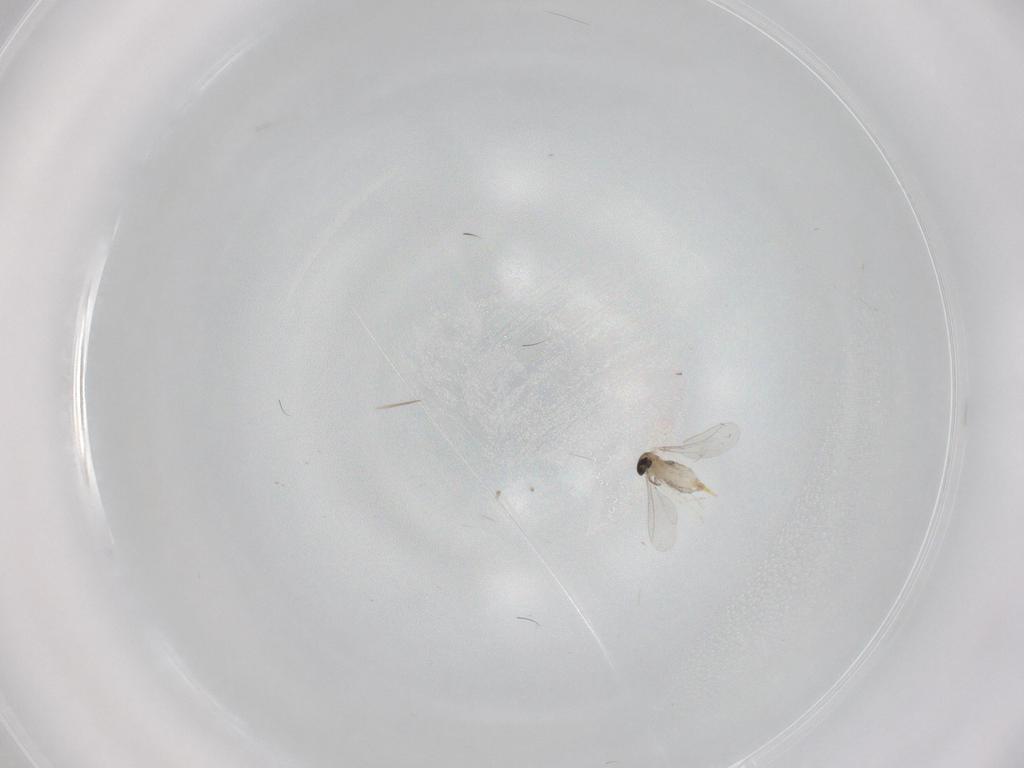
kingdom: Animalia
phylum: Arthropoda
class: Insecta
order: Diptera
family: Cecidomyiidae
